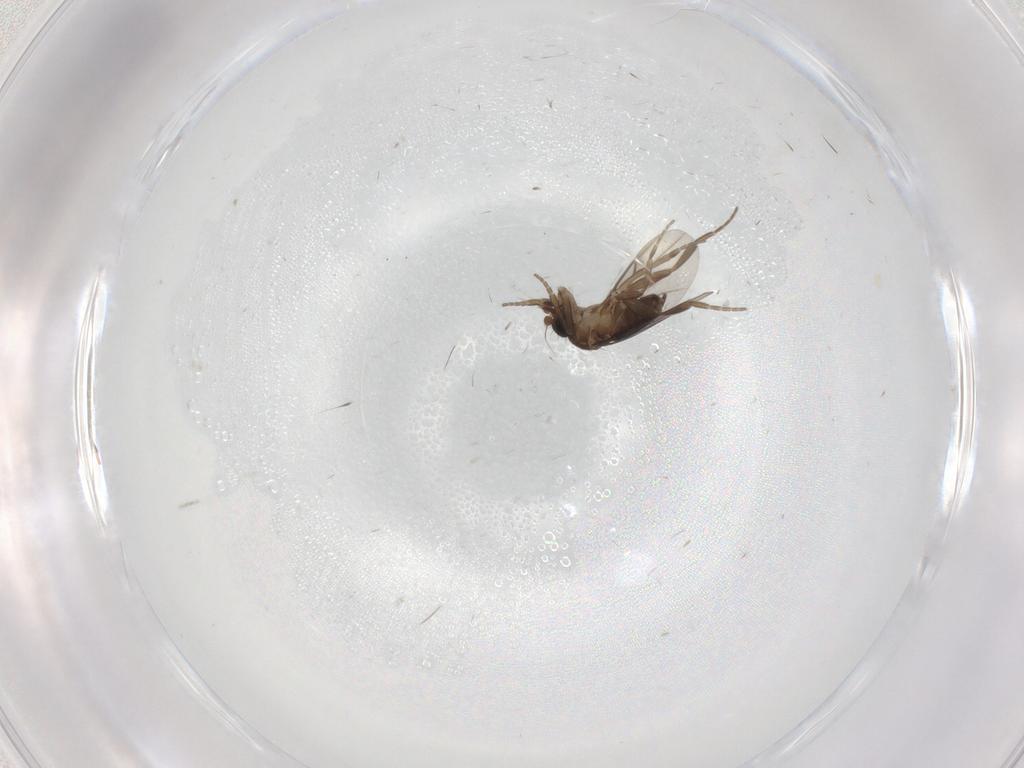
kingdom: Animalia
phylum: Arthropoda
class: Insecta
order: Diptera
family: Phoridae
